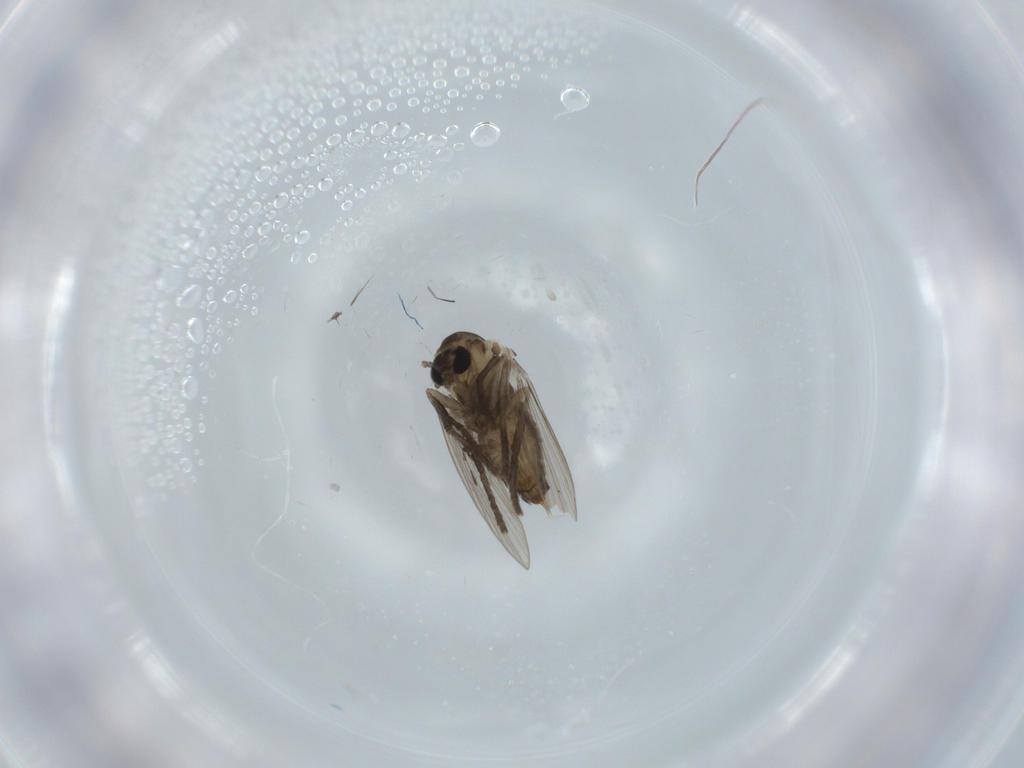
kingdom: Animalia
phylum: Arthropoda
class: Insecta
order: Diptera
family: Psychodidae
